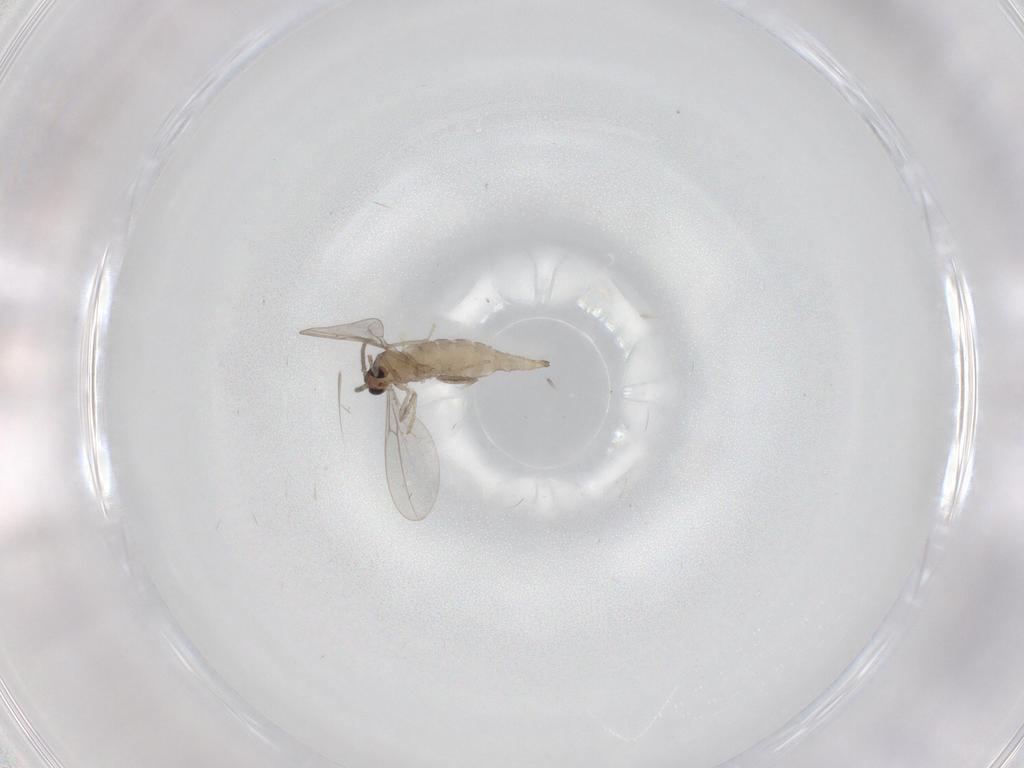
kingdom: Animalia
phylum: Arthropoda
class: Insecta
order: Diptera
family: Cecidomyiidae
